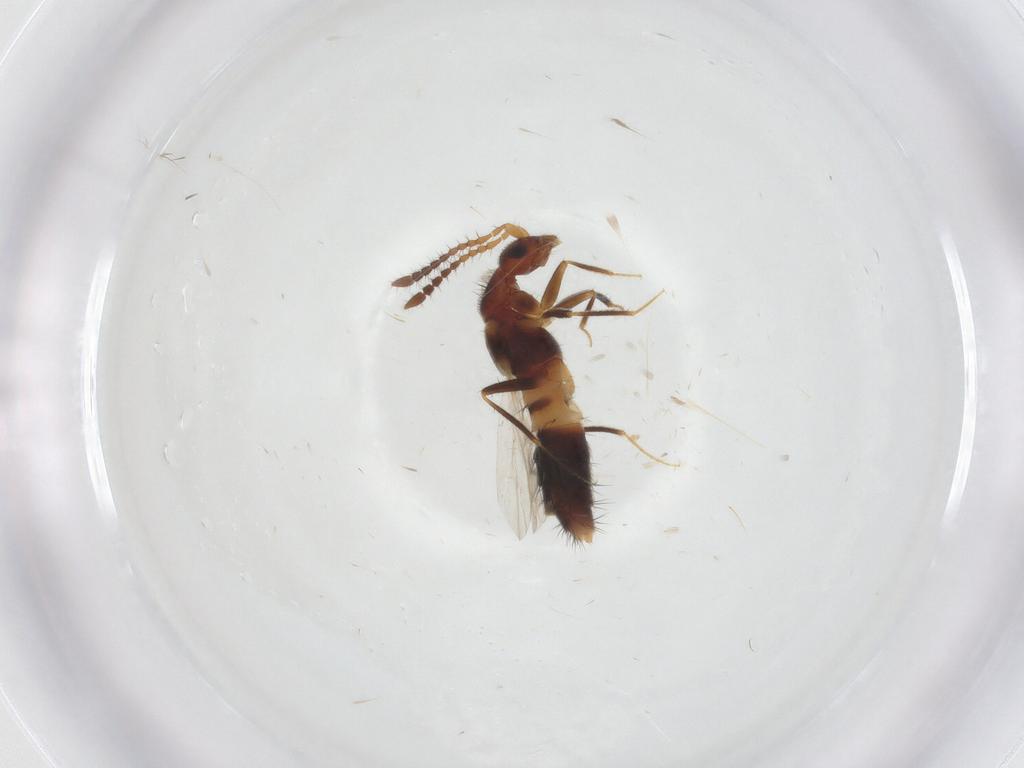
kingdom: Animalia
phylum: Arthropoda
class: Insecta
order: Coleoptera
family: Staphylinidae
